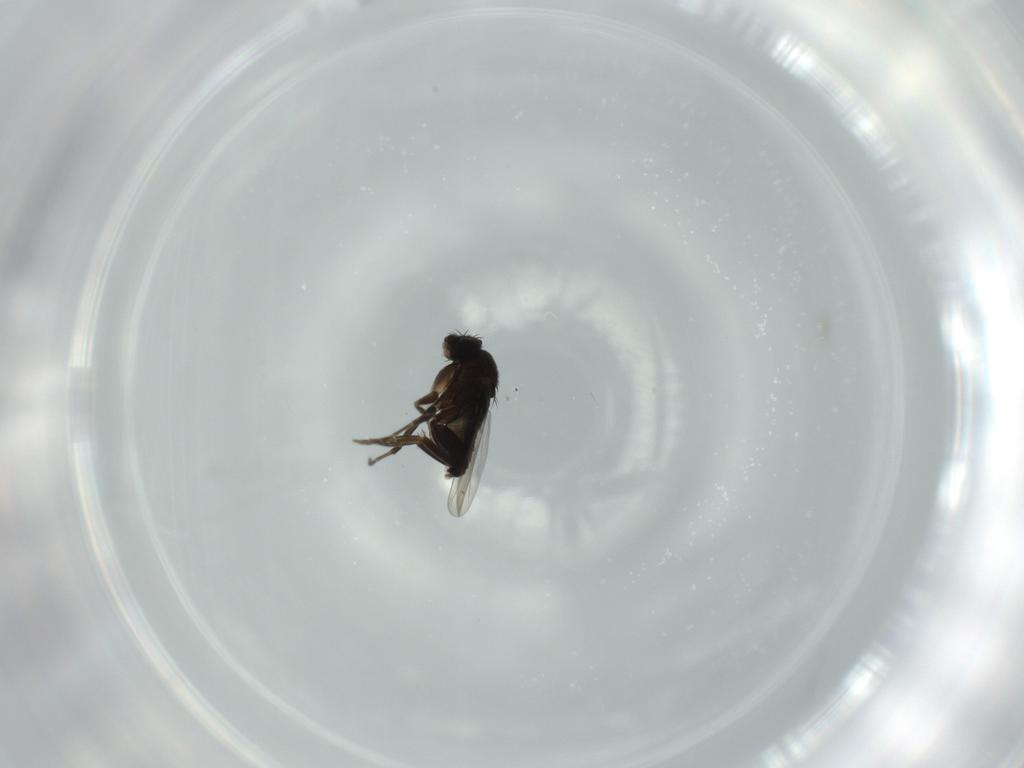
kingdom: Animalia
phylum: Arthropoda
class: Insecta
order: Diptera
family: Phoridae
